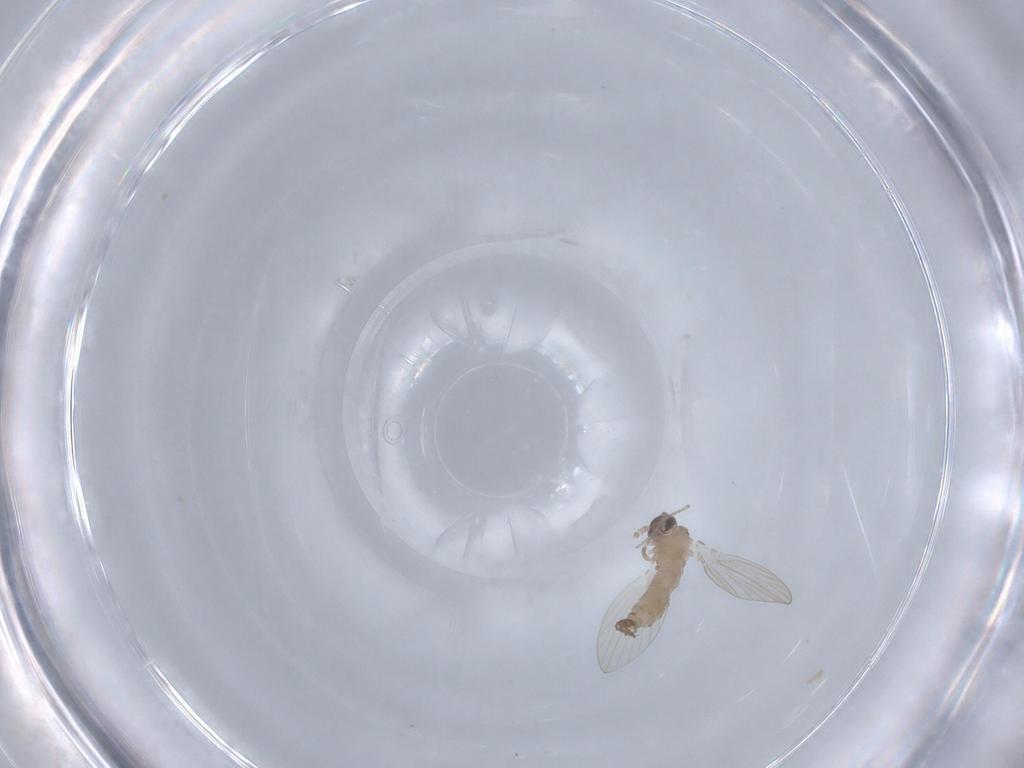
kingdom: Animalia
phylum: Arthropoda
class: Insecta
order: Diptera
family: Psychodidae
